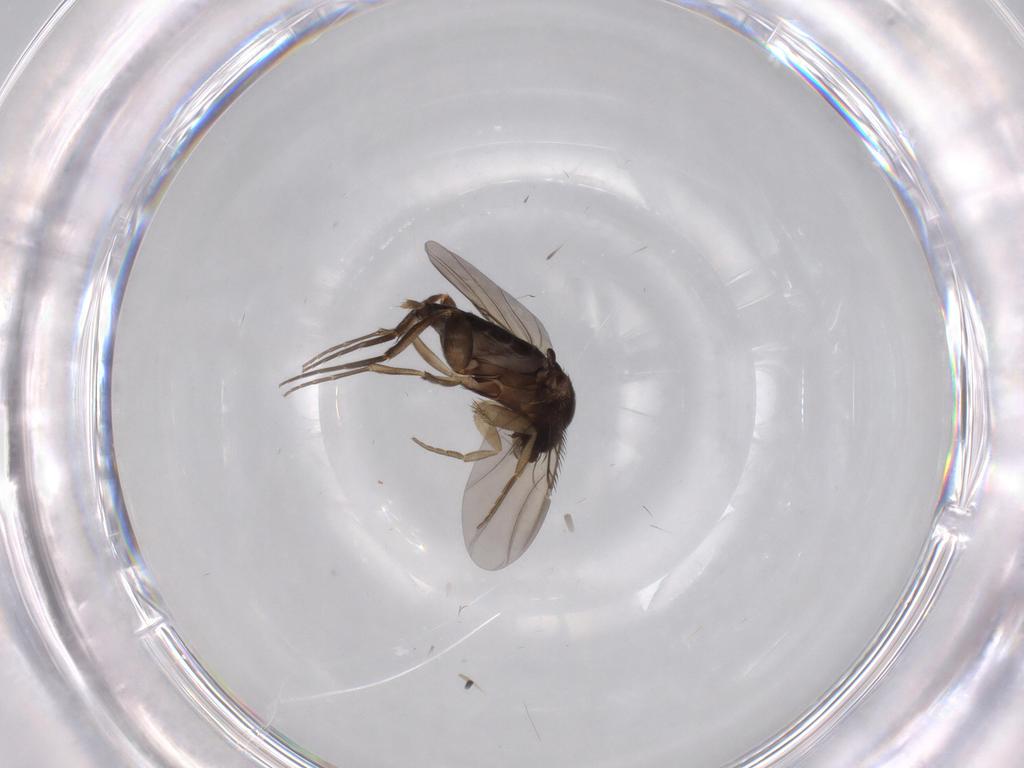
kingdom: Animalia
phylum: Arthropoda
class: Insecta
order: Diptera
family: Phoridae
